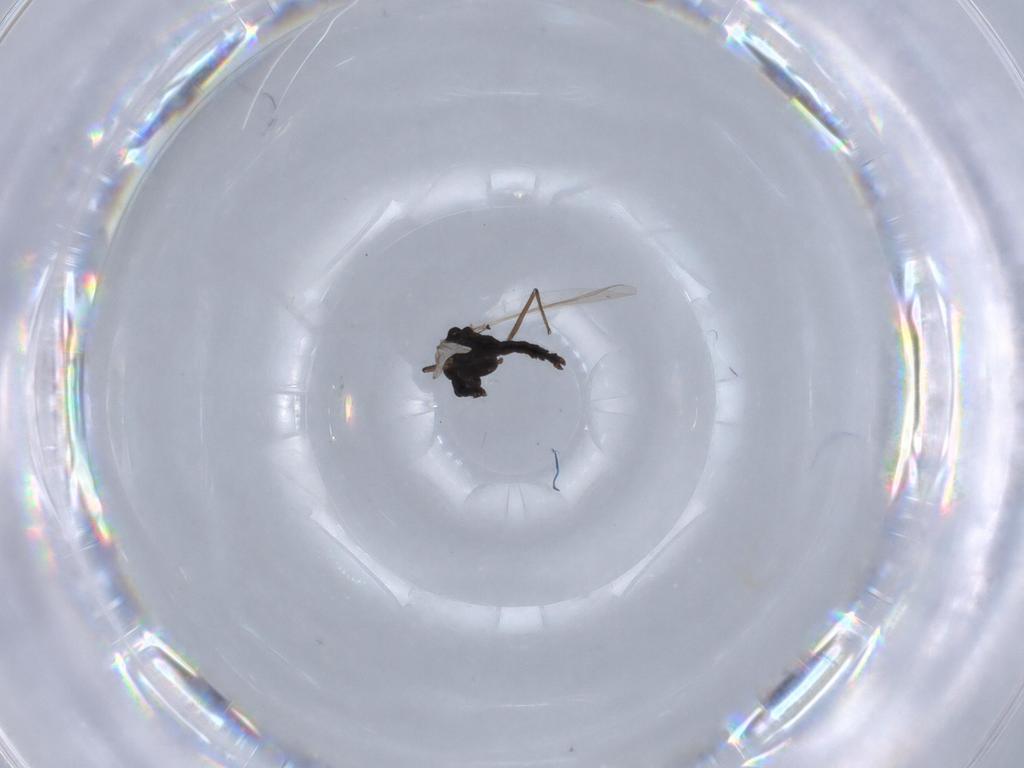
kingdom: Animalia
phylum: Arthropoda
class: Insecta
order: Diptera
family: Chironomidae
